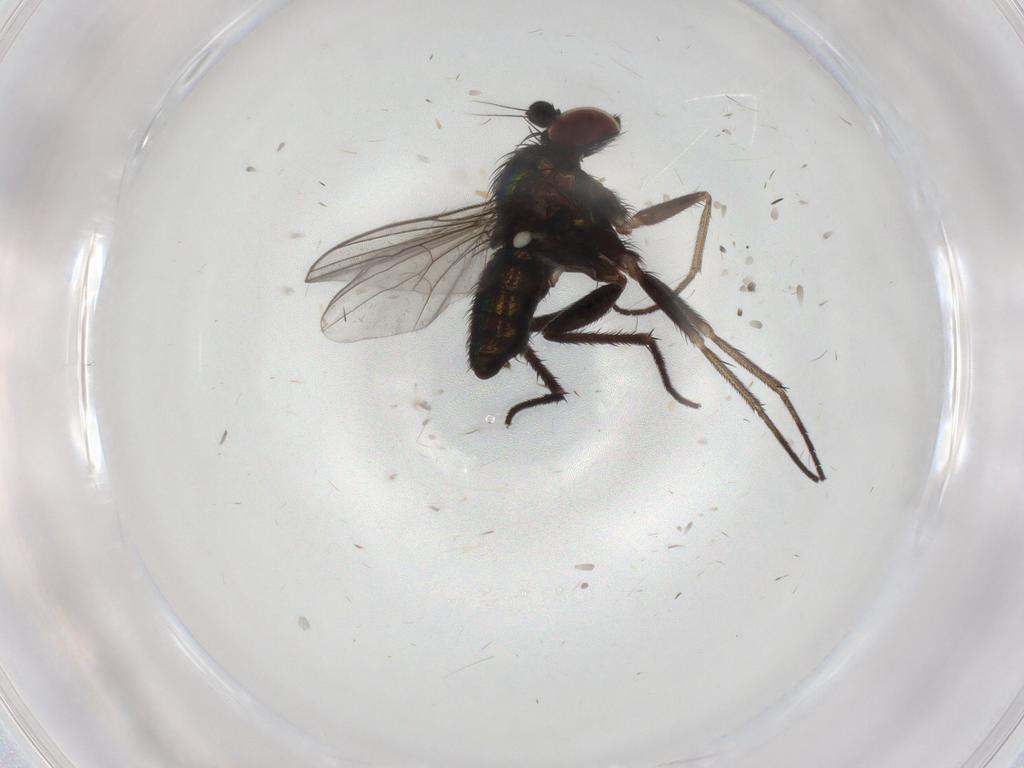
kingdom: Animalia
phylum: Arthropoda
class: Insecta
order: Diptera
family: Dolichopodidae
